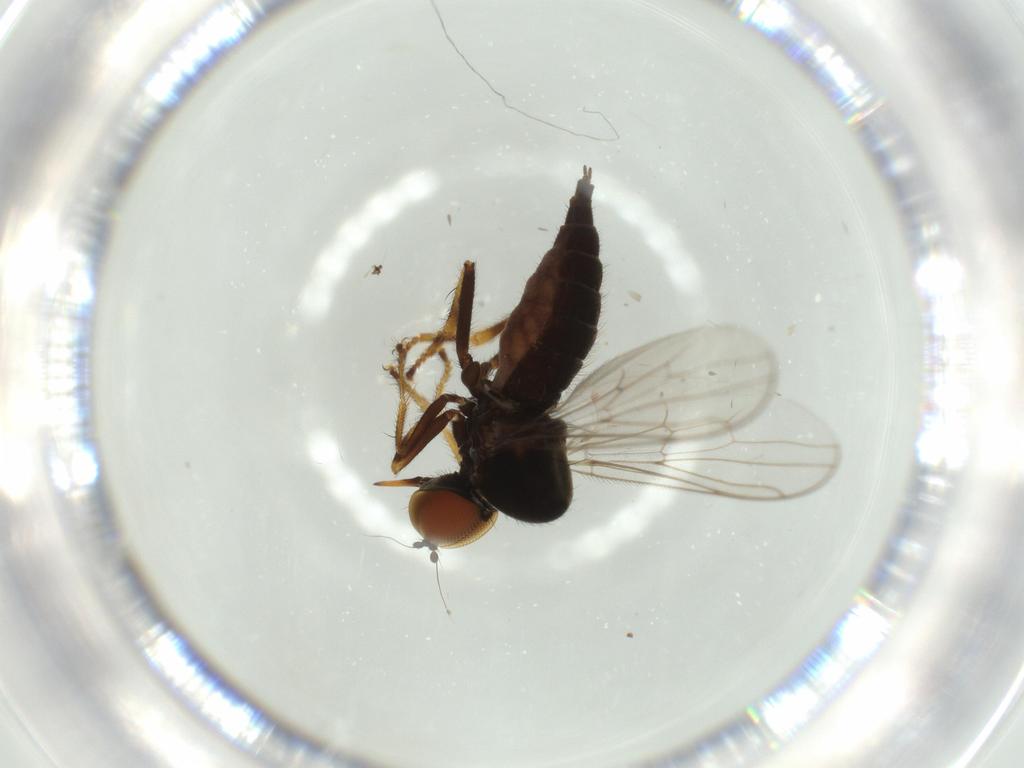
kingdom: Animalia
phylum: Arthropoda
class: Insecta
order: Diptera
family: Hybotidae
